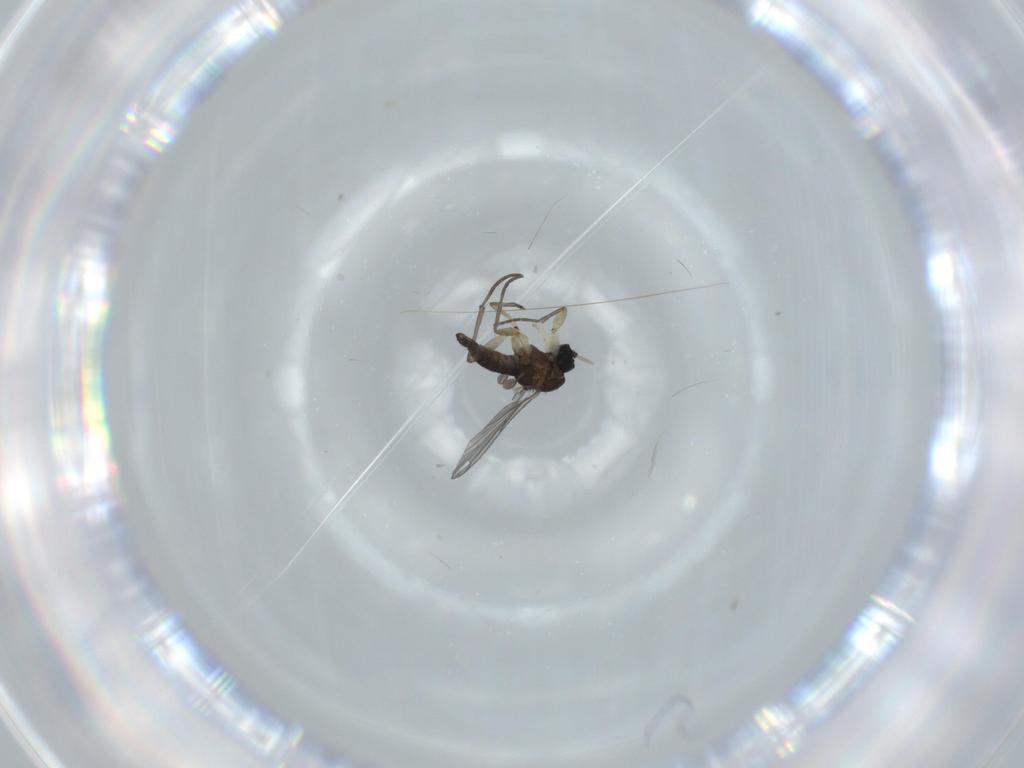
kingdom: Animalia
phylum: Arthropoda
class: Insecta
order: Diptera
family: Sciaridae
